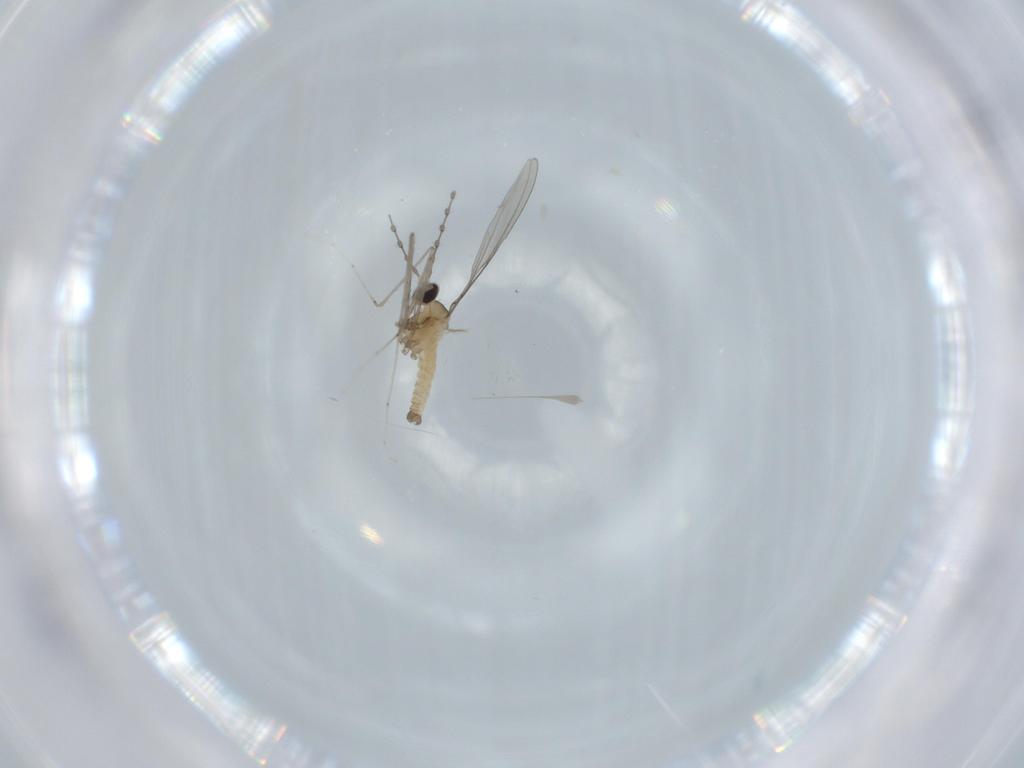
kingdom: Animalia
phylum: Arthropoda
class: Insecta
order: Diptera
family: Cecidomyiidae
